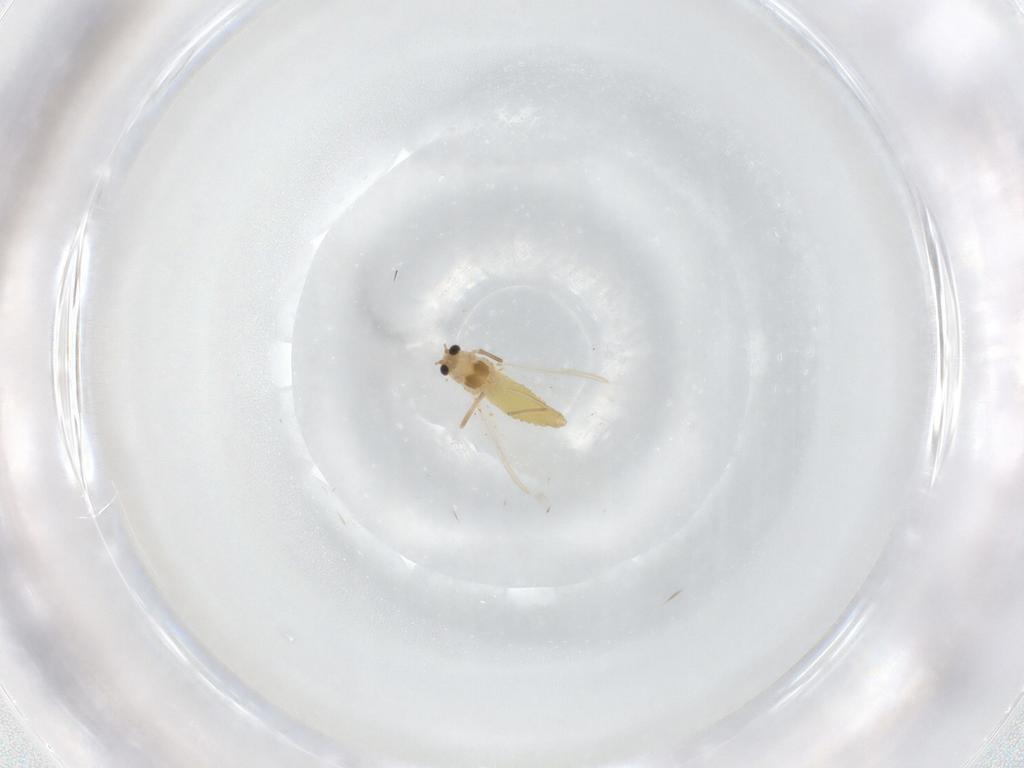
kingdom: Animalia
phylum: Arthropoda
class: Insecta
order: Diptera
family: Chironomidae
